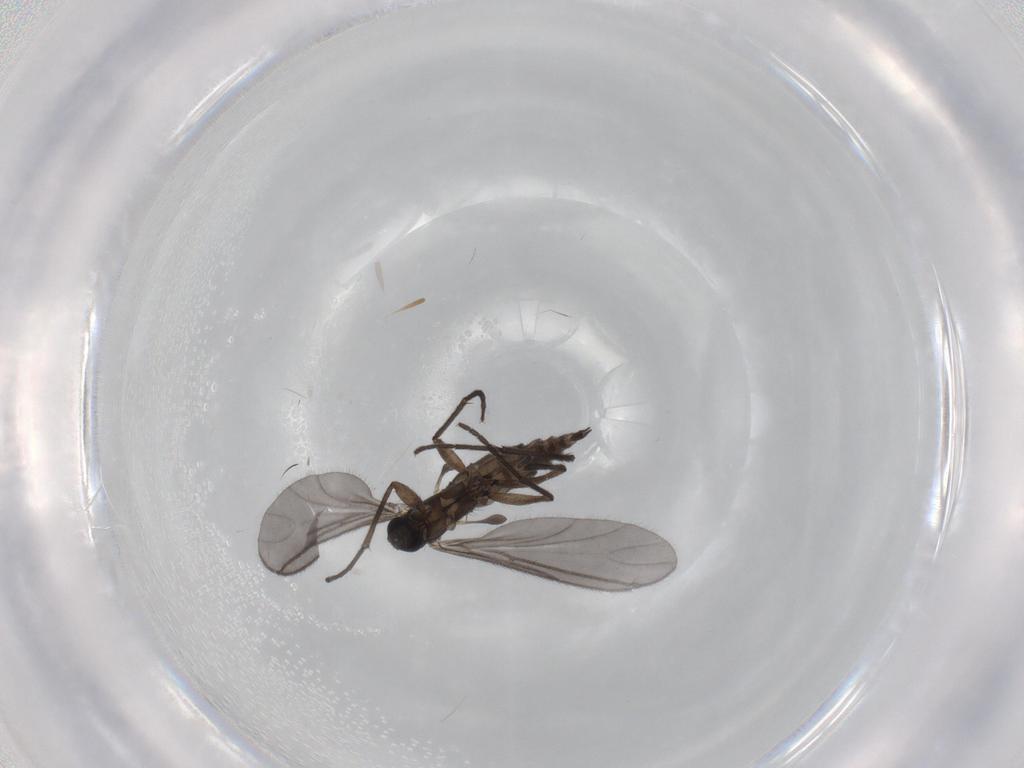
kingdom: Animalia
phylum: Arthropoda
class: Insecta
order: Diptera
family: Sciaridae
